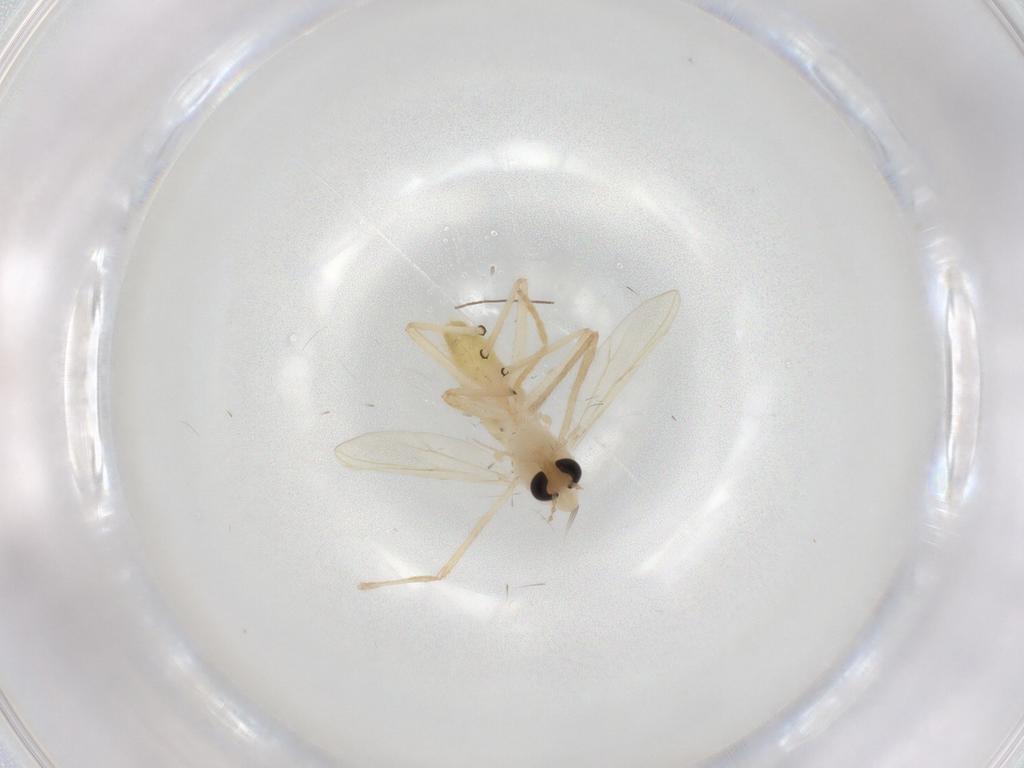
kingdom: Animalia
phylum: Arthropoda
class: Insecta
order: Diptera
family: Chironomidae
